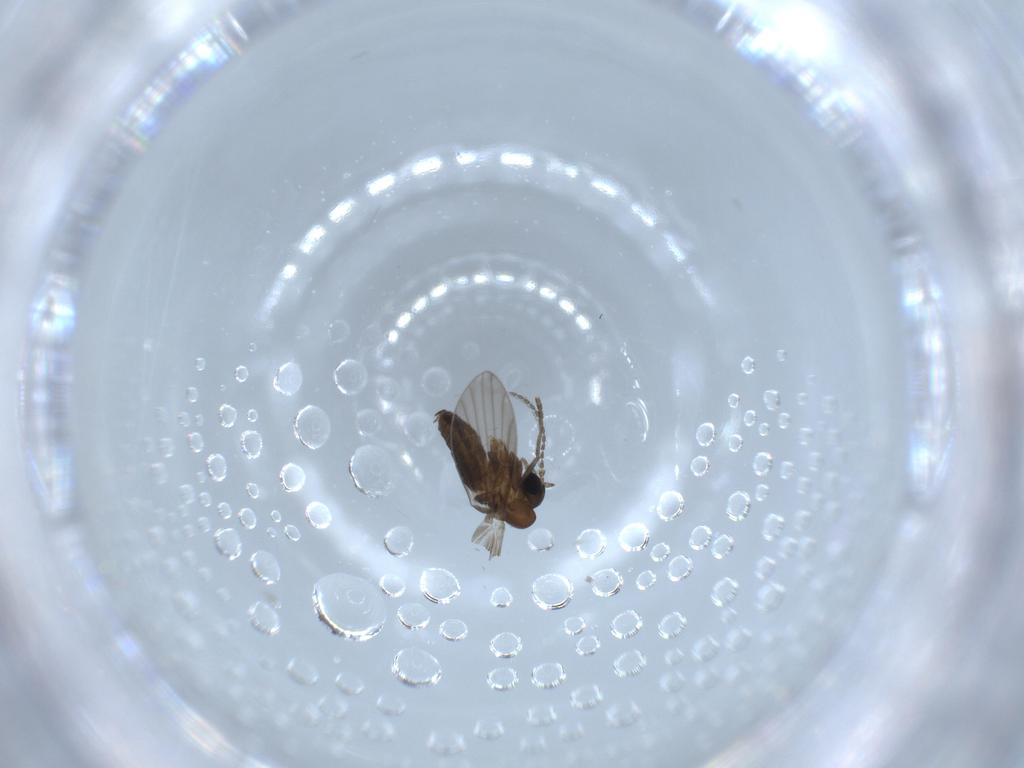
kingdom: Animalia
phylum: Arthropoda
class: Insecta
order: Diptera
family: Psychodidae
